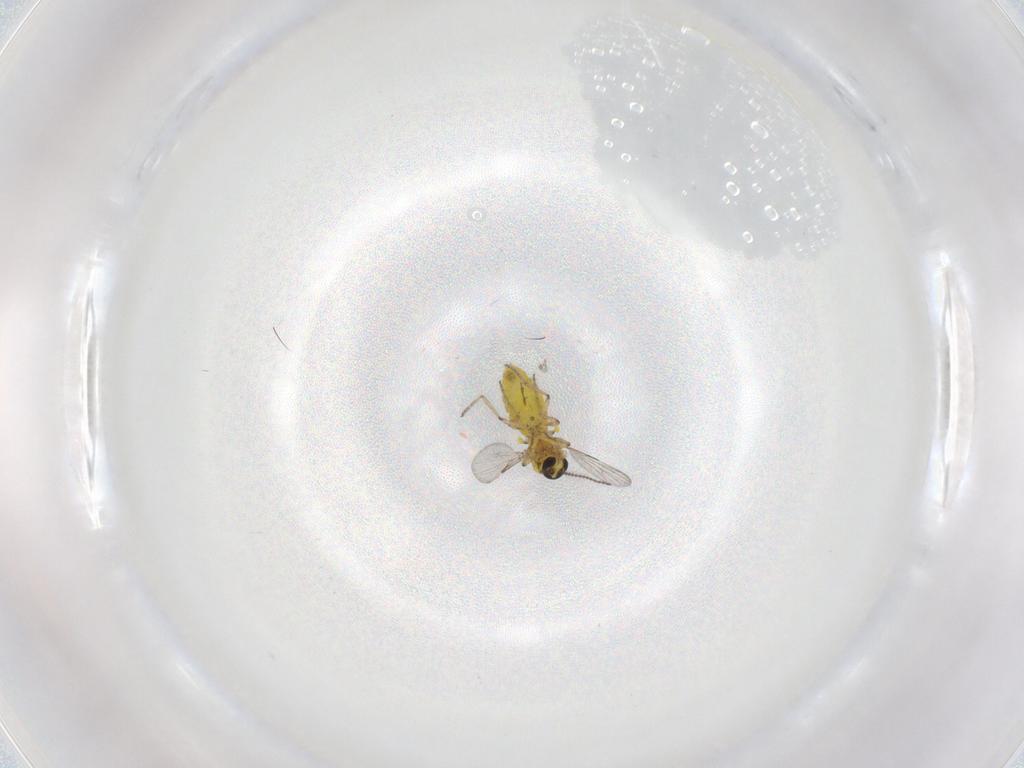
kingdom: Animalia
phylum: Arthropoda
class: Insecta
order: Diptera
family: Ceratopogonidae
